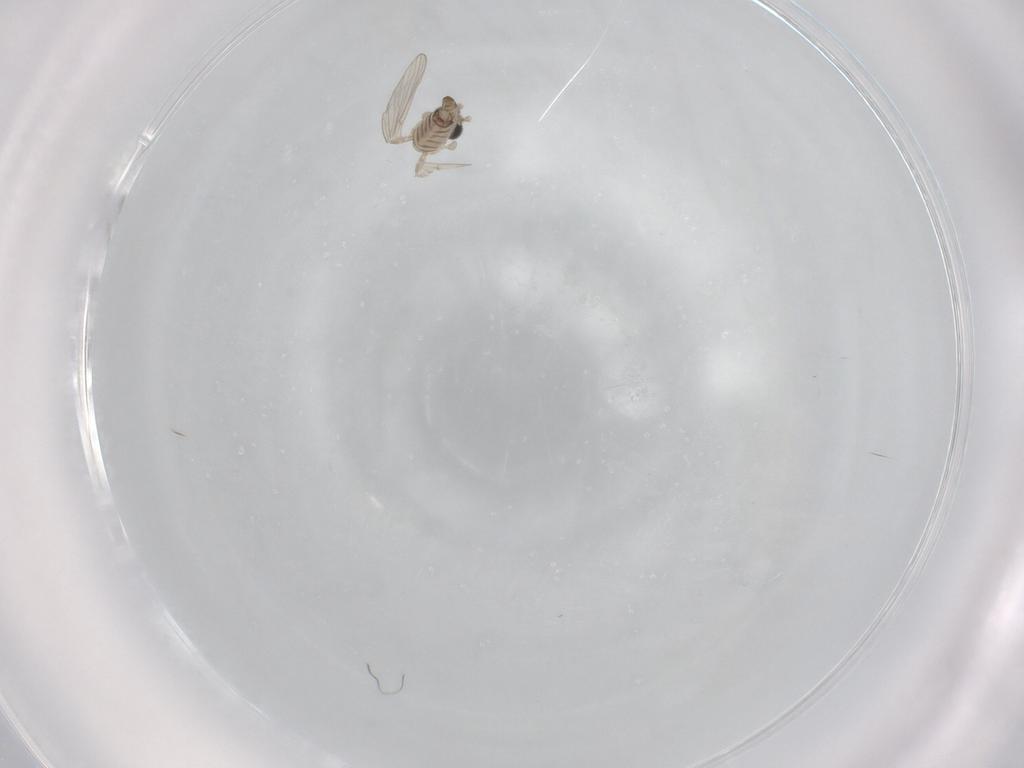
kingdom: Animalia
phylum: Arthropoda
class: Insecta
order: Diptera
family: Psychodidae
